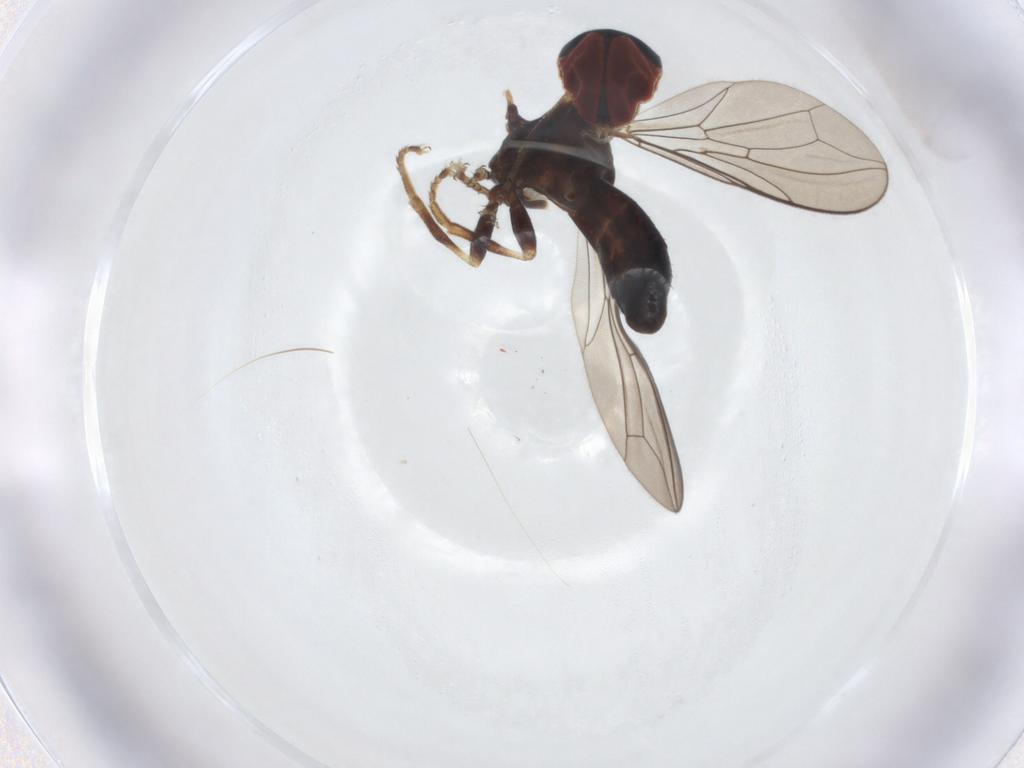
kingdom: Animalia
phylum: Arthropoda
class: Insecta
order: Diptera
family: Pipunculidae
